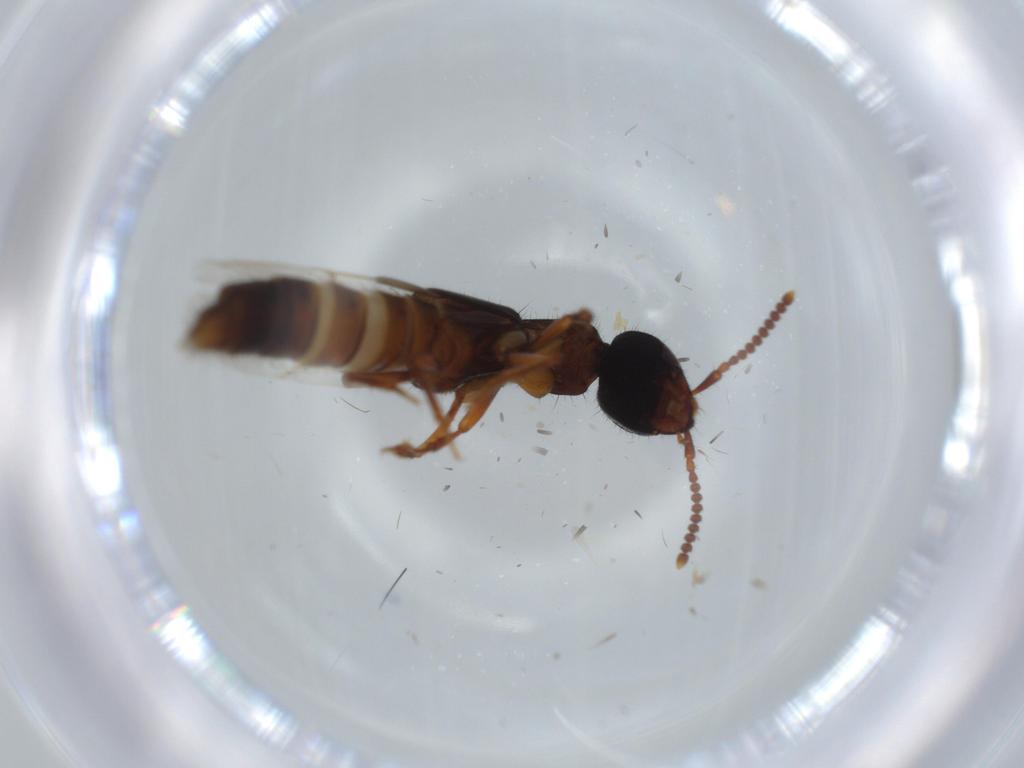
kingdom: Animalia
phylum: Arthropoda
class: Insecta
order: Coleoptera
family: Staphylinidae
